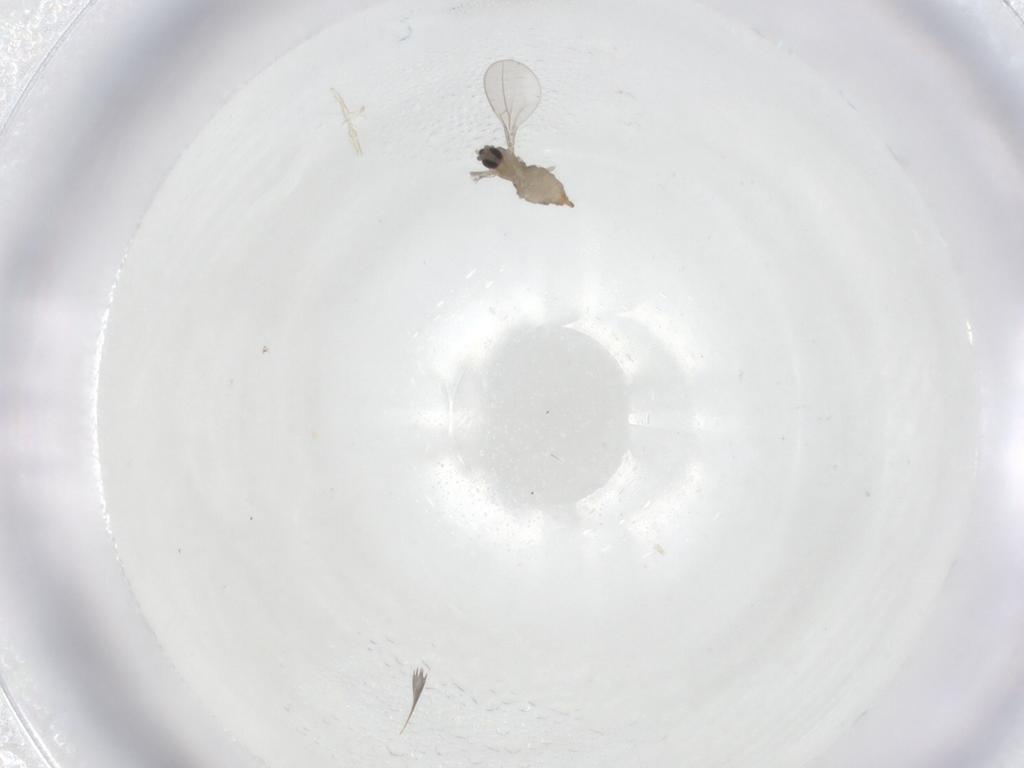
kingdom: Animalia
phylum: Arthropoda
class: Insecta
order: Diptera
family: Cecidomyiidae
